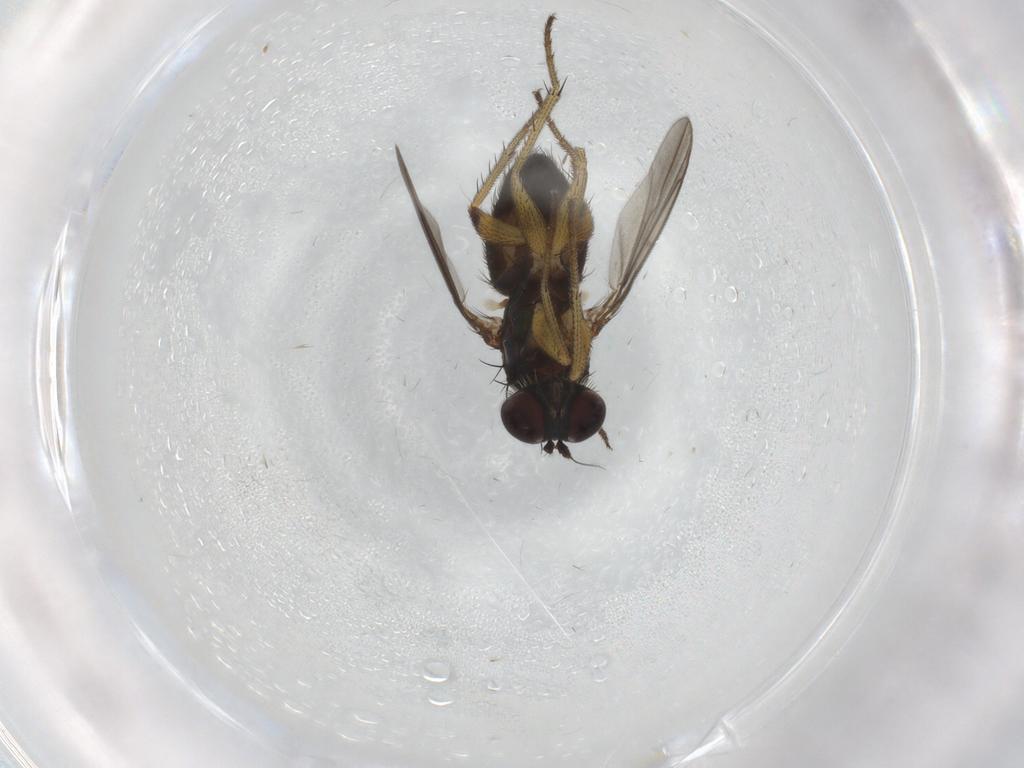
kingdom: Animalia
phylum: Arthropoda
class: Insecta
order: Diptera
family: Dolichopodidae
